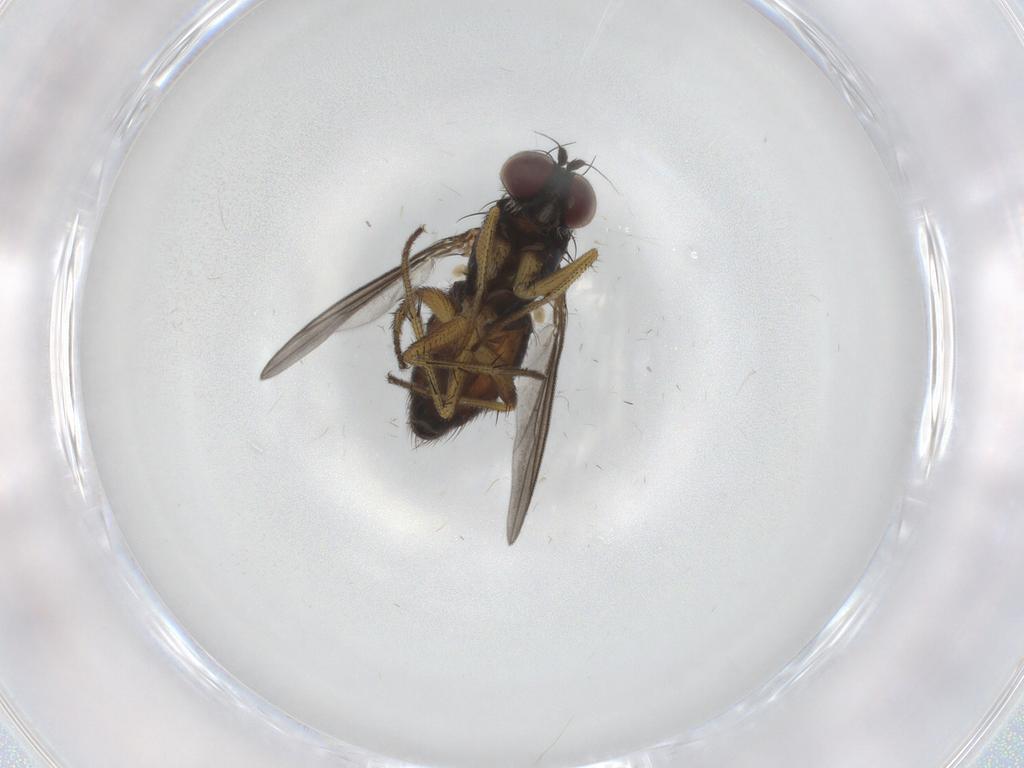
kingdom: Animalia
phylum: Arthropoda
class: Insecta
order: Diptera
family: Dolichopodidae
